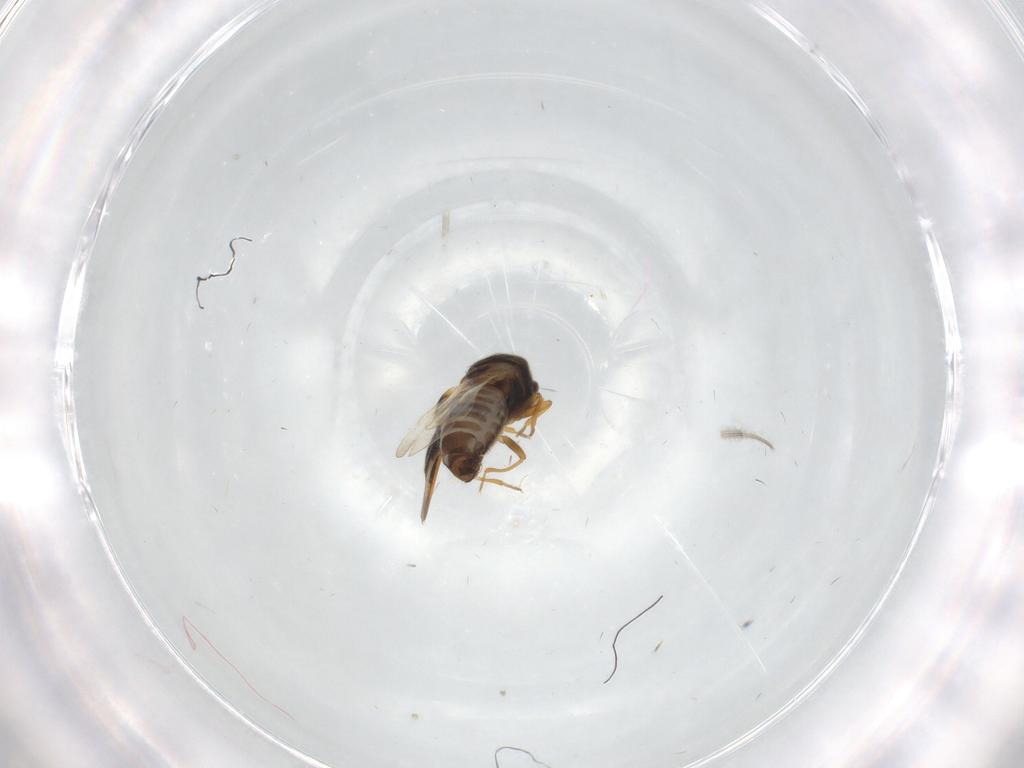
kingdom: Animalia
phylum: Arthropoda
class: Insecta
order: Hemiptera
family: Schizopteridae
